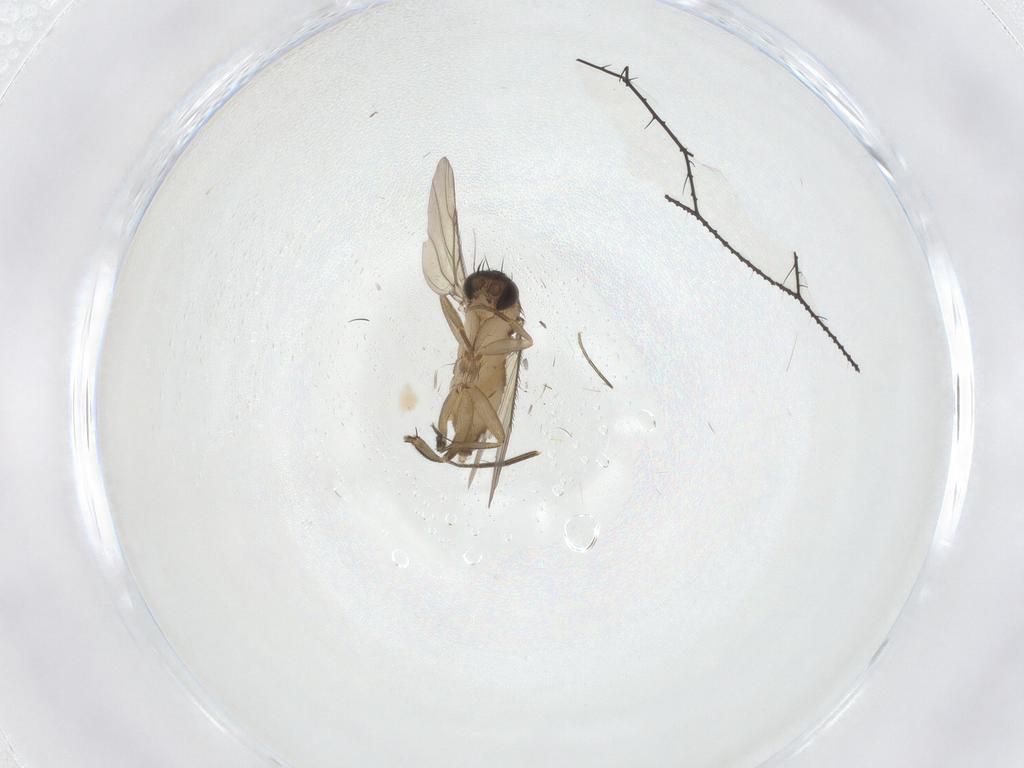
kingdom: Animalia
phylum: Arthropoda
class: Insecta
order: Diptera
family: Phoridae
